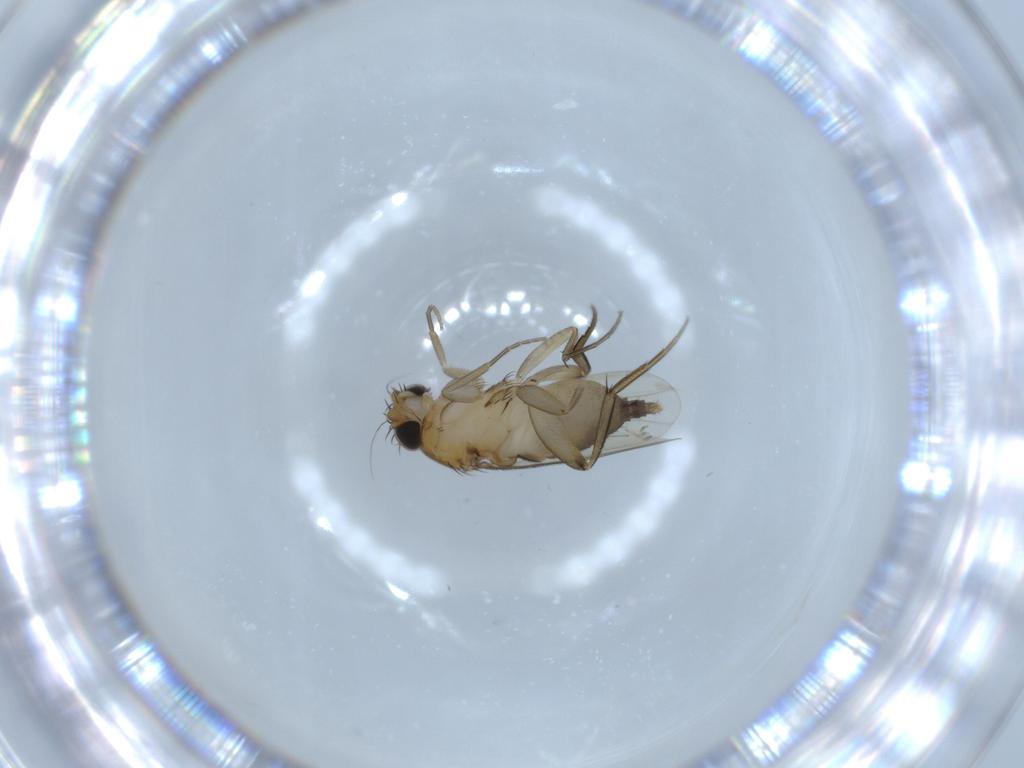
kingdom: Animalia
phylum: Arthropoda
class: Insecta
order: Diptera
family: Phoridae
